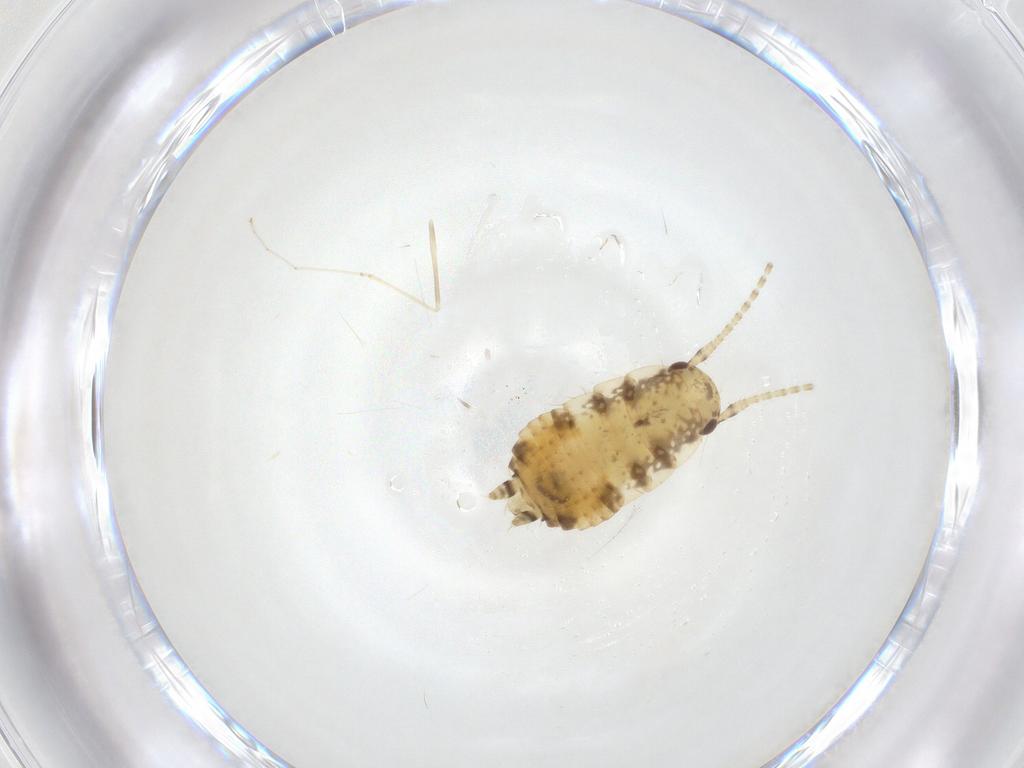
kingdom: Animalia
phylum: Arthropoda
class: Insecta
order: Blattodea
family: Ectobiidae
